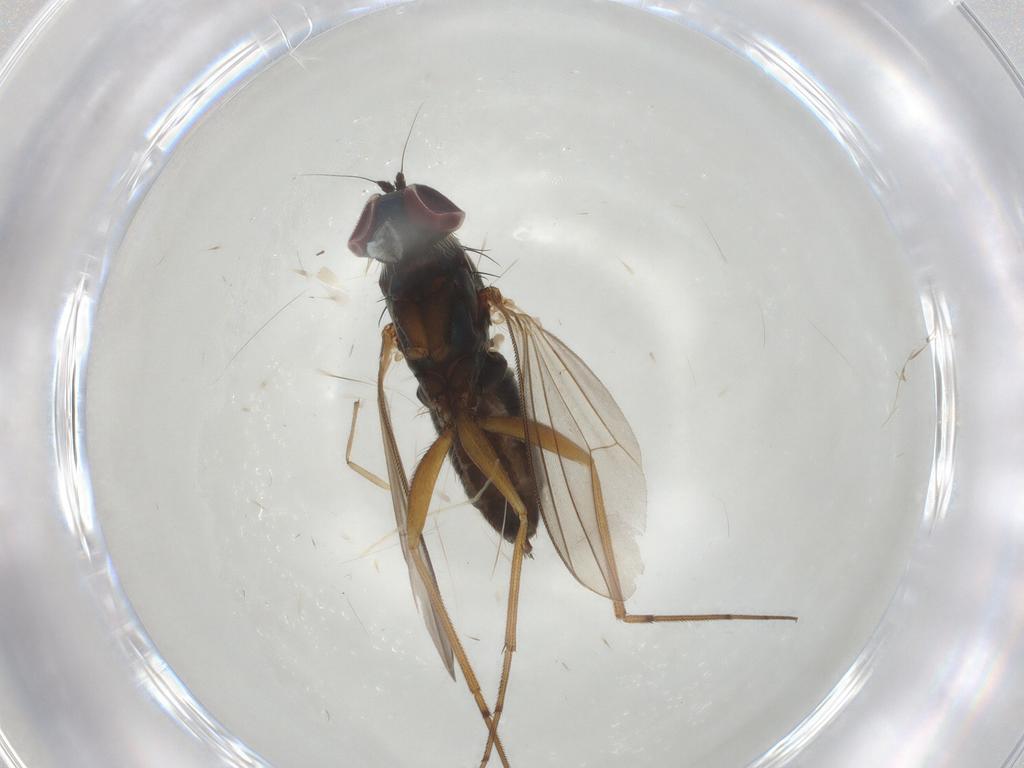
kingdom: Animalia
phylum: Arthropoda
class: Insecta
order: Diptera
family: Dolichopodidae
